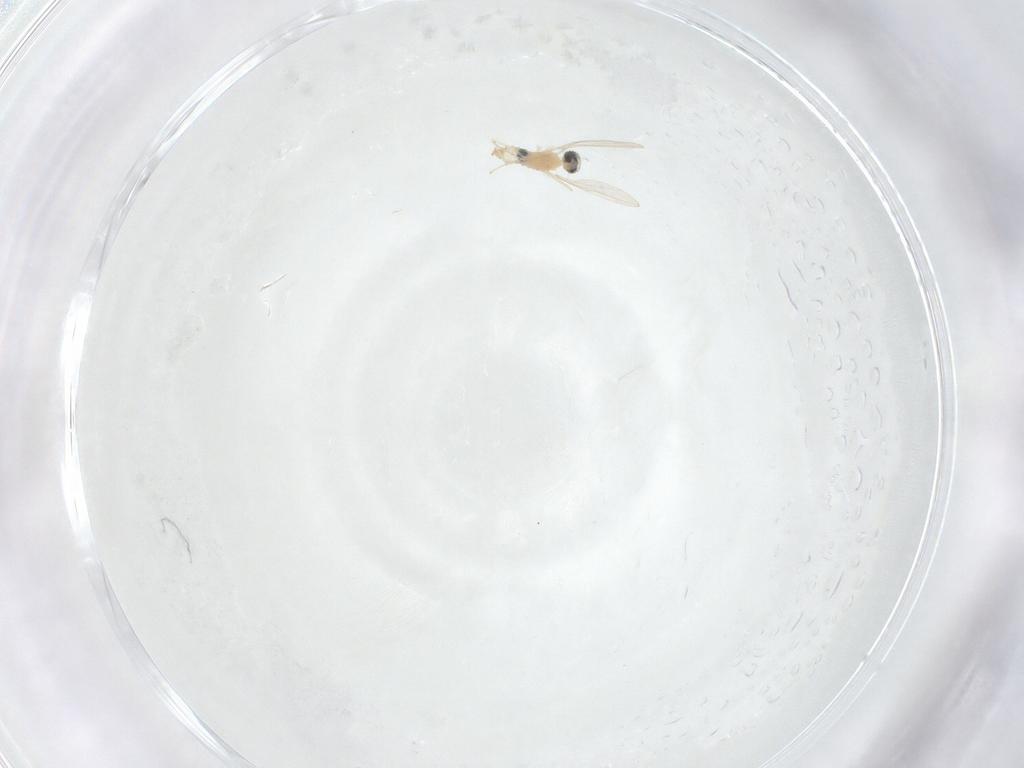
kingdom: Animalia
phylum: Arthropoda
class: Insecta
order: Diptera
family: Cecidomyiidae
